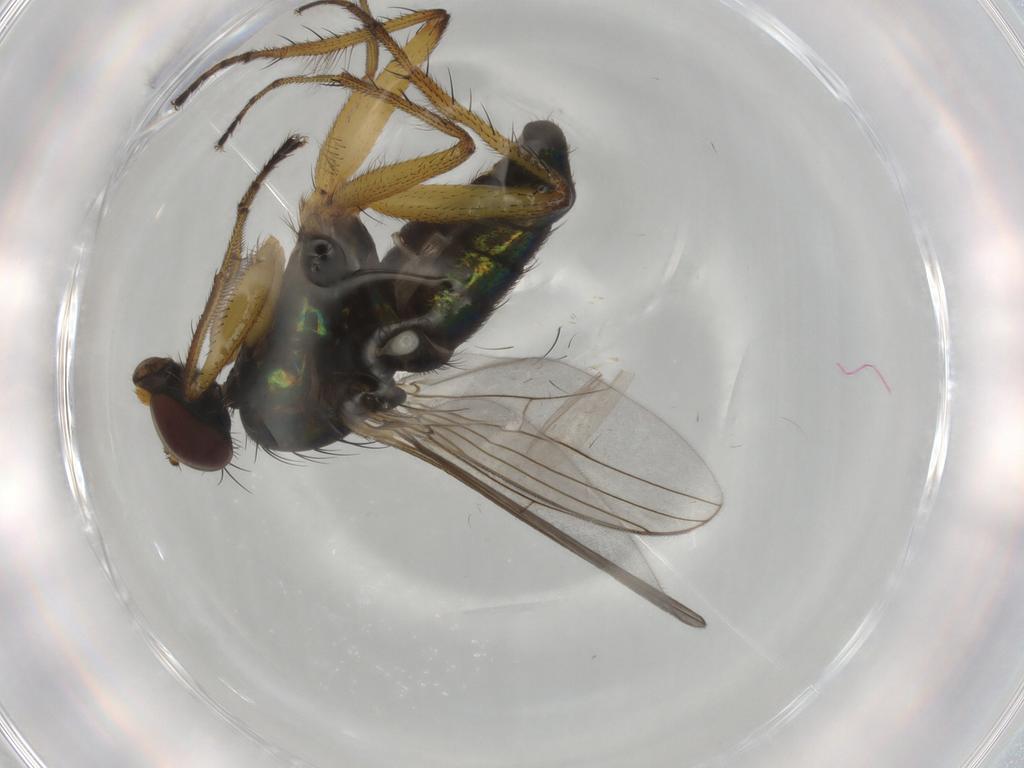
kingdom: Animalia
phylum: Arthropoda
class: Insecta
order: Diptera
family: Dolichopodidae
